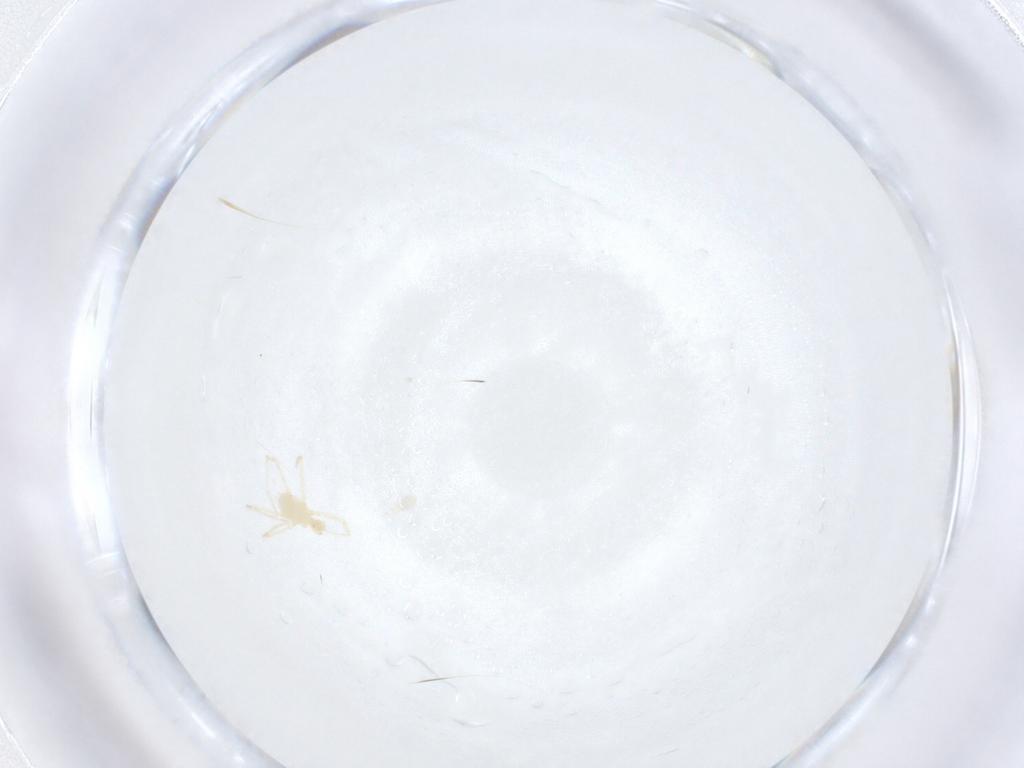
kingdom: Animalia
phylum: Arthropoda
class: Arachnida
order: Trombidiformes
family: Erythraeidae
